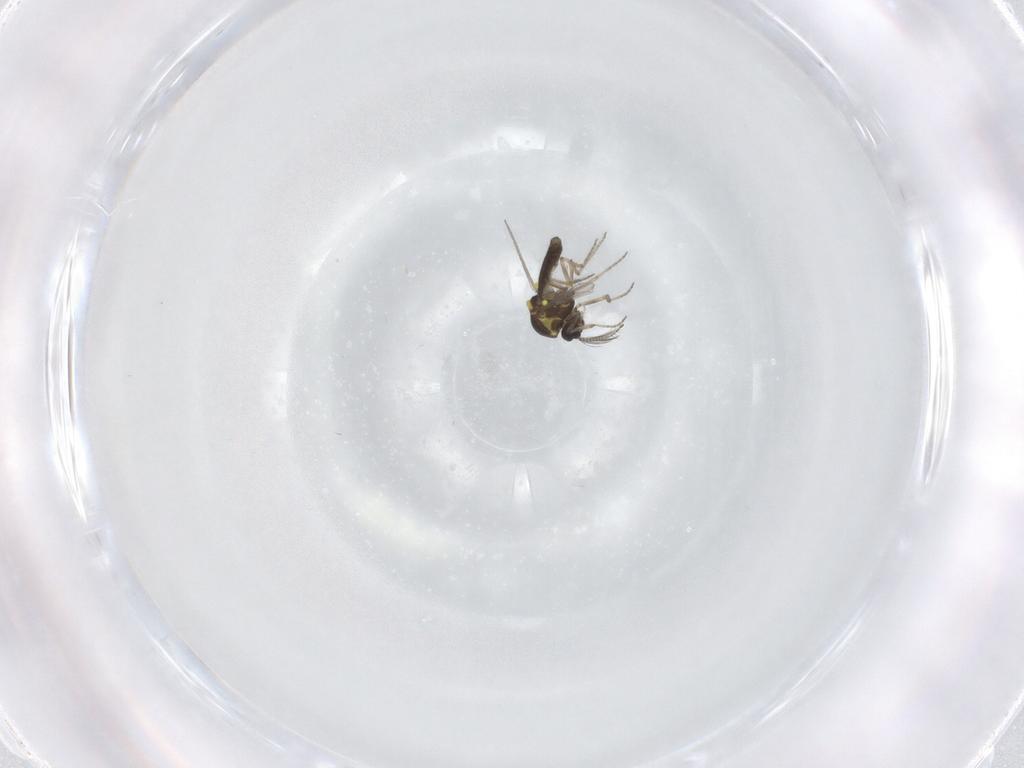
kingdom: Animalia
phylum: Arthropoda
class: Insecta
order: Diptera
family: Ceratopogonidae
